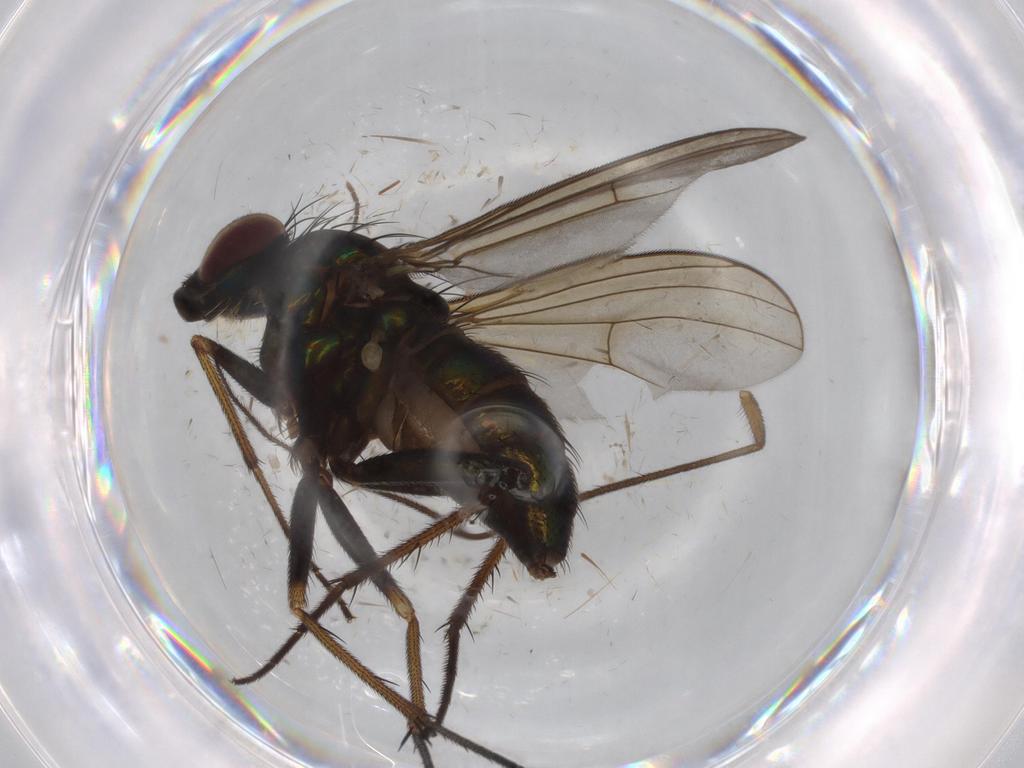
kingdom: Animalia
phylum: Arthropoda
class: Insecta
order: Diptera
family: Dolichopodidae
